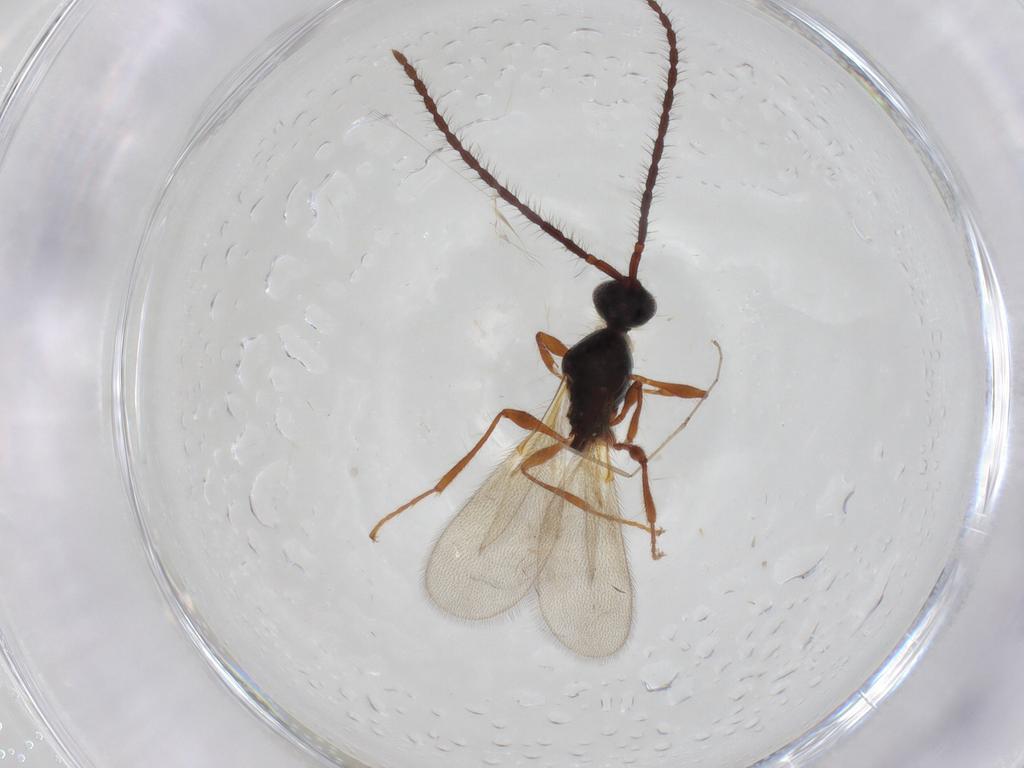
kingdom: Animalia
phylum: Arthropoda
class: Insecta
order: Hymenoptera
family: Diapriidae
